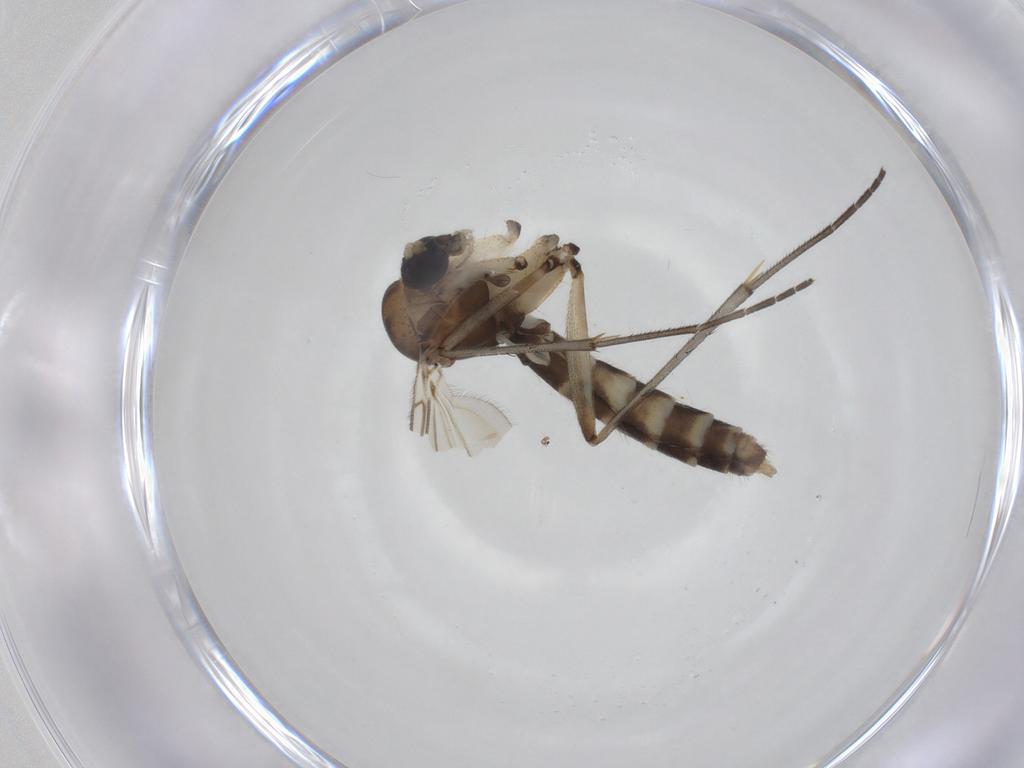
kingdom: Animalia
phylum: Arthropoda
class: Insecta
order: Diptera
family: Mycetophilidae
